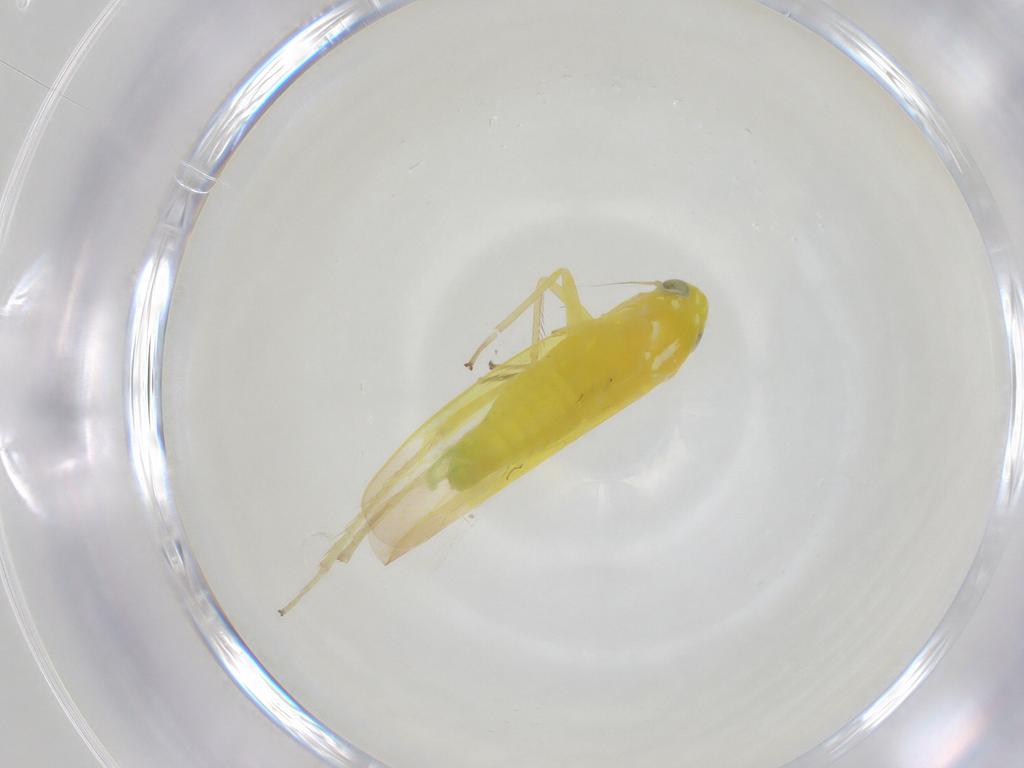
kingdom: Animalia
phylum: Arthropoda
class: Insecta
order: Hemiptera
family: Cicadellidae
